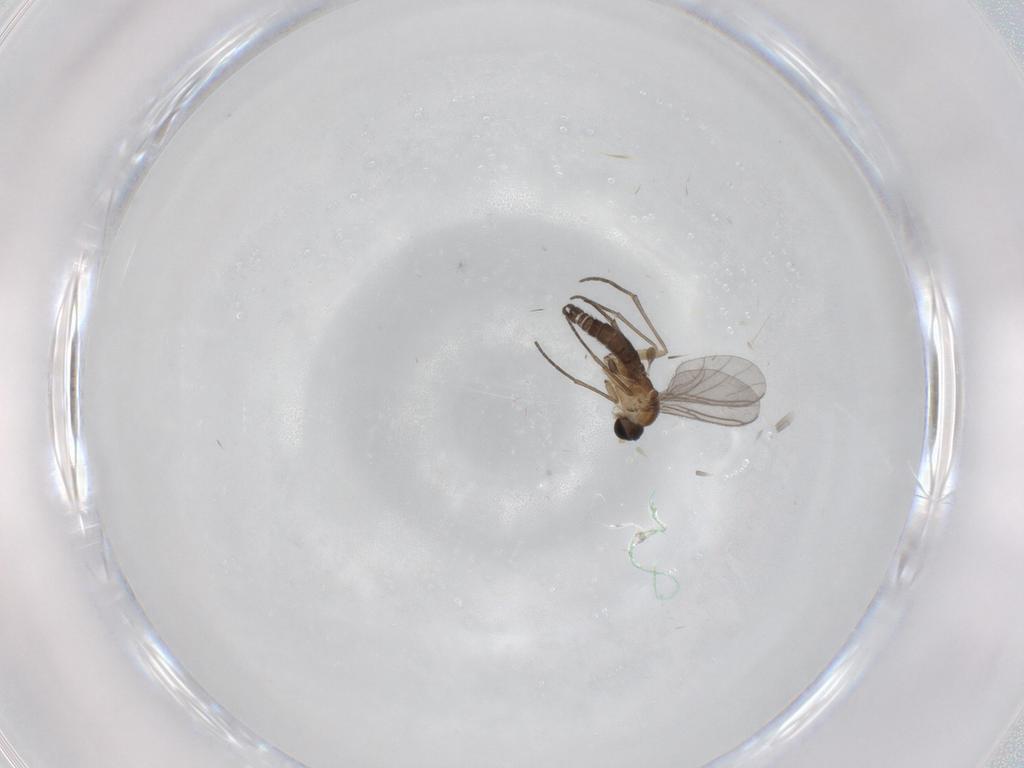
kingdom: Animalia
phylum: Arthropoda
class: Insecta
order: Diptera
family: Sciaridae
